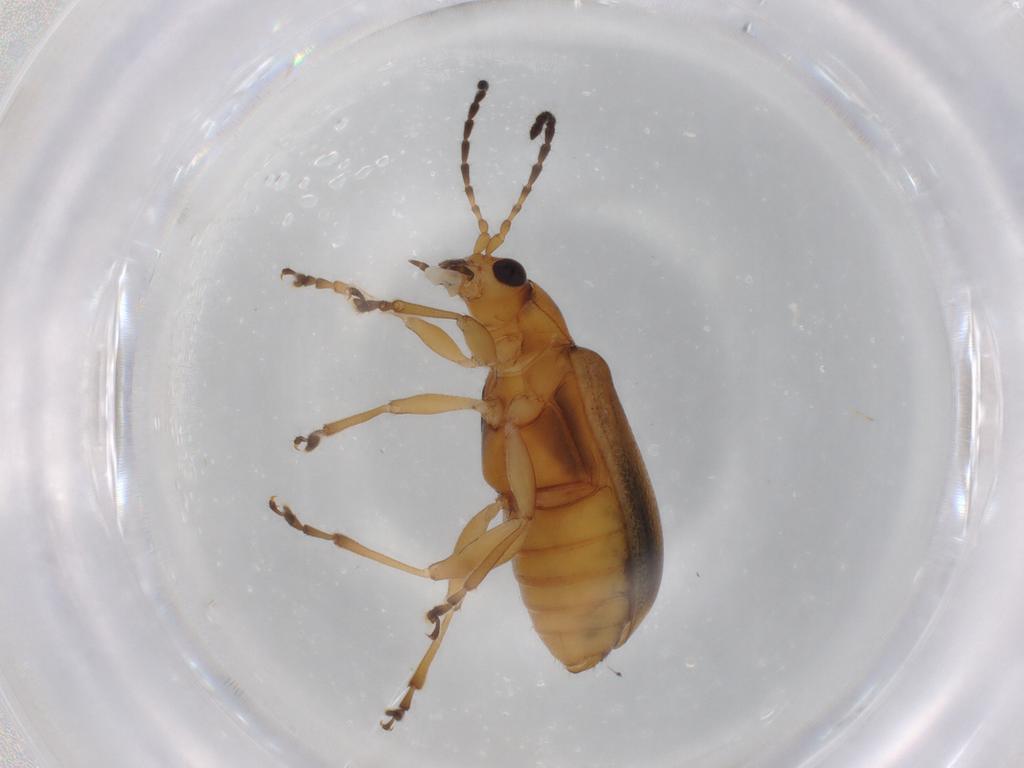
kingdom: Animalia
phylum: Arthropoda
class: Insecta
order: Coleoptera
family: Chrysomelidae
